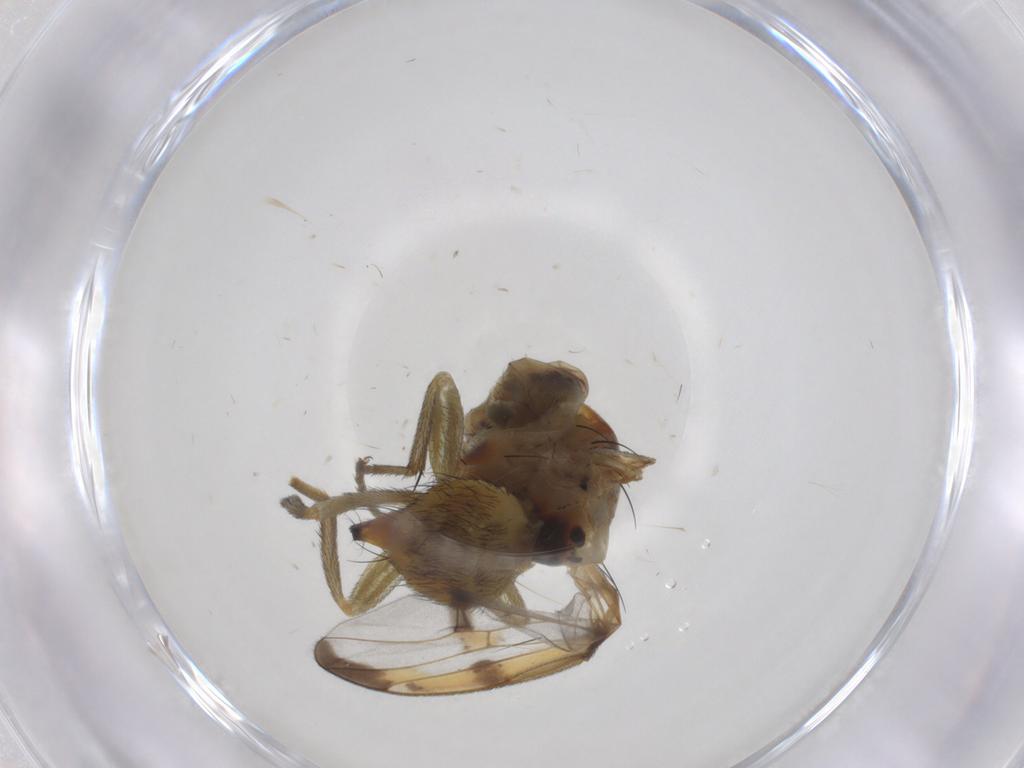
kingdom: Animalia
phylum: Arthropoda
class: Insecta
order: Diptera
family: Tephritidae
